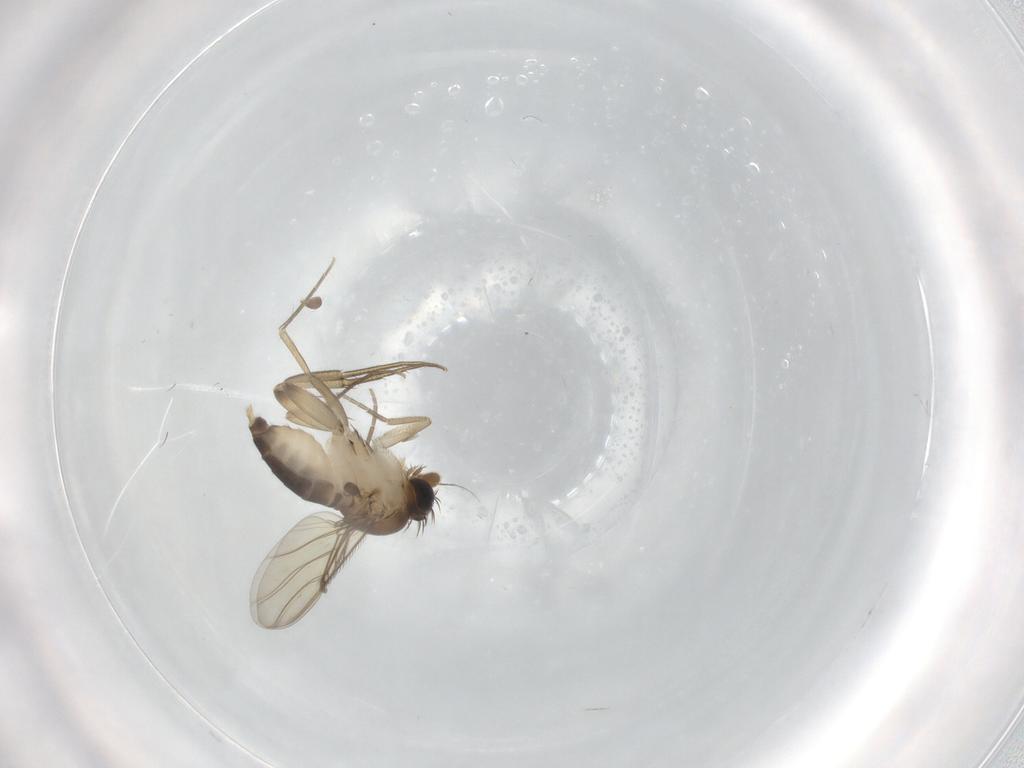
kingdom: Animalia
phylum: Arthropoda
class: Insecta
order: Diptera
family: Phoridae
